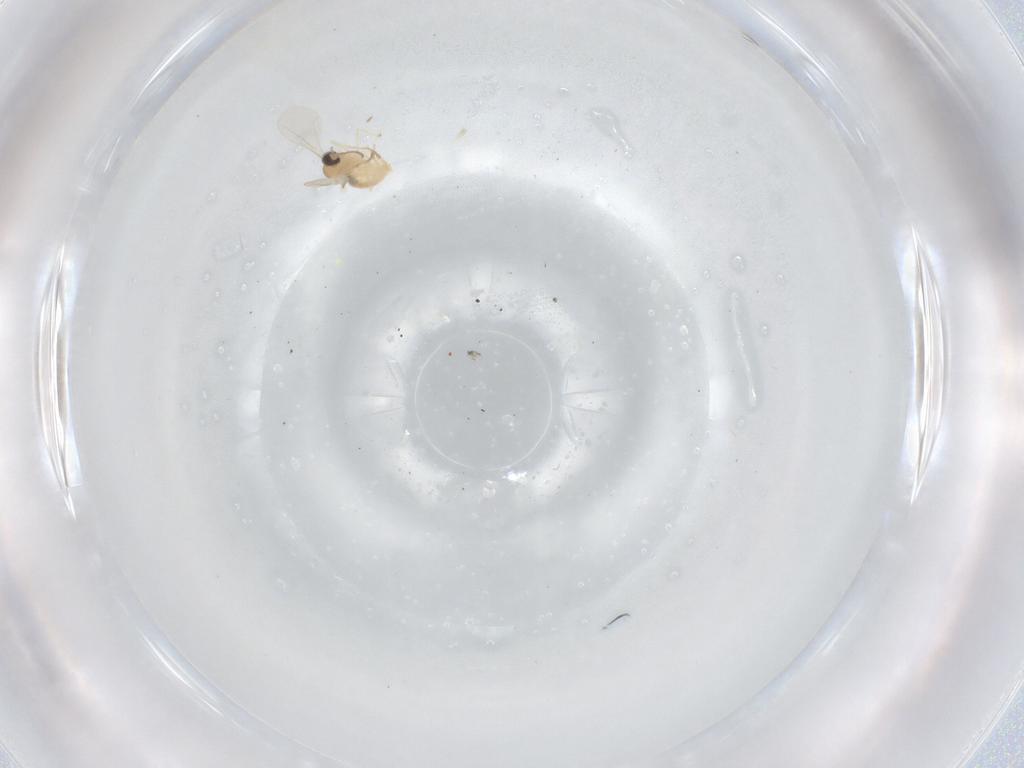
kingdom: Animalia
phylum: Arthropoda
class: Insecta
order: Diptera
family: Cecidomyiidae
